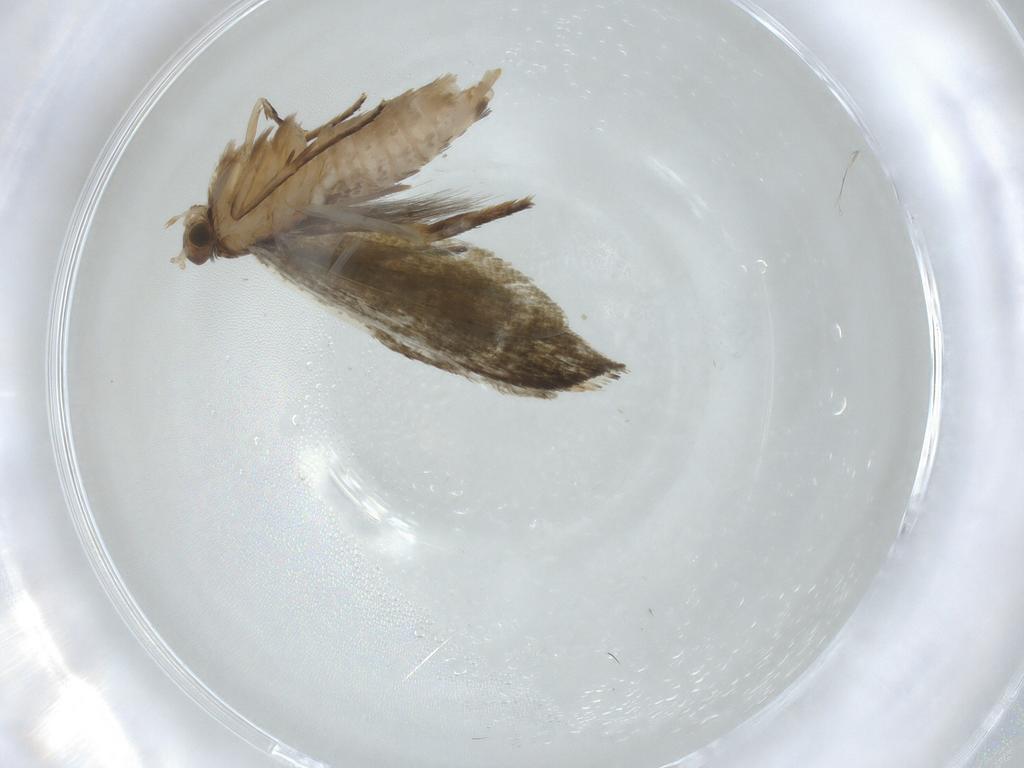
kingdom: Animalia
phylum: Arthropoda
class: Insecta
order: Lepidoptera
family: Tineidae
